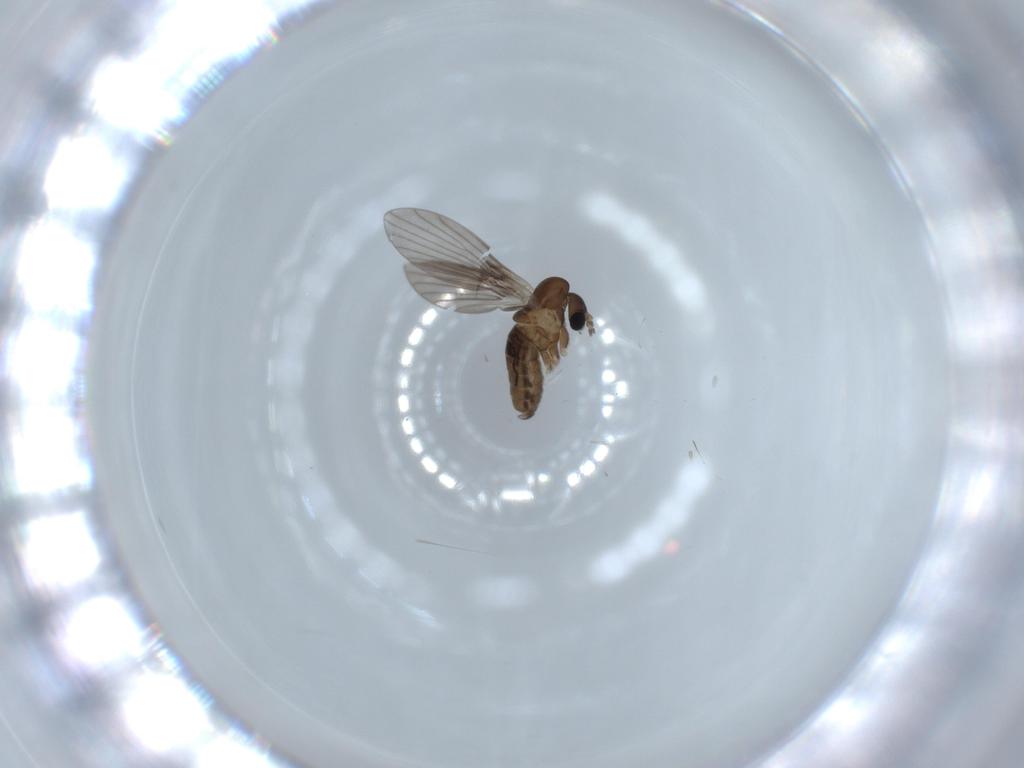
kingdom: Animalia
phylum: Arthropoda
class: Insecta
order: Diptera
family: Psychodidae
